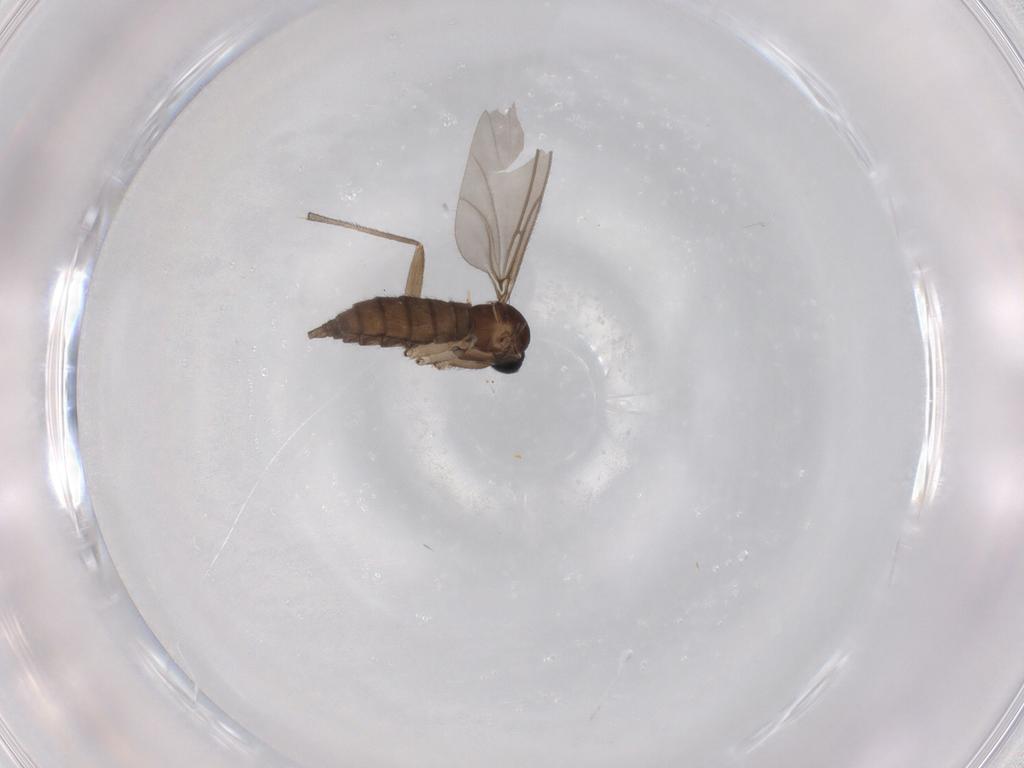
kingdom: Animalia
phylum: Arthropoda
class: Insecta
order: Diptera
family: Sciaridae
